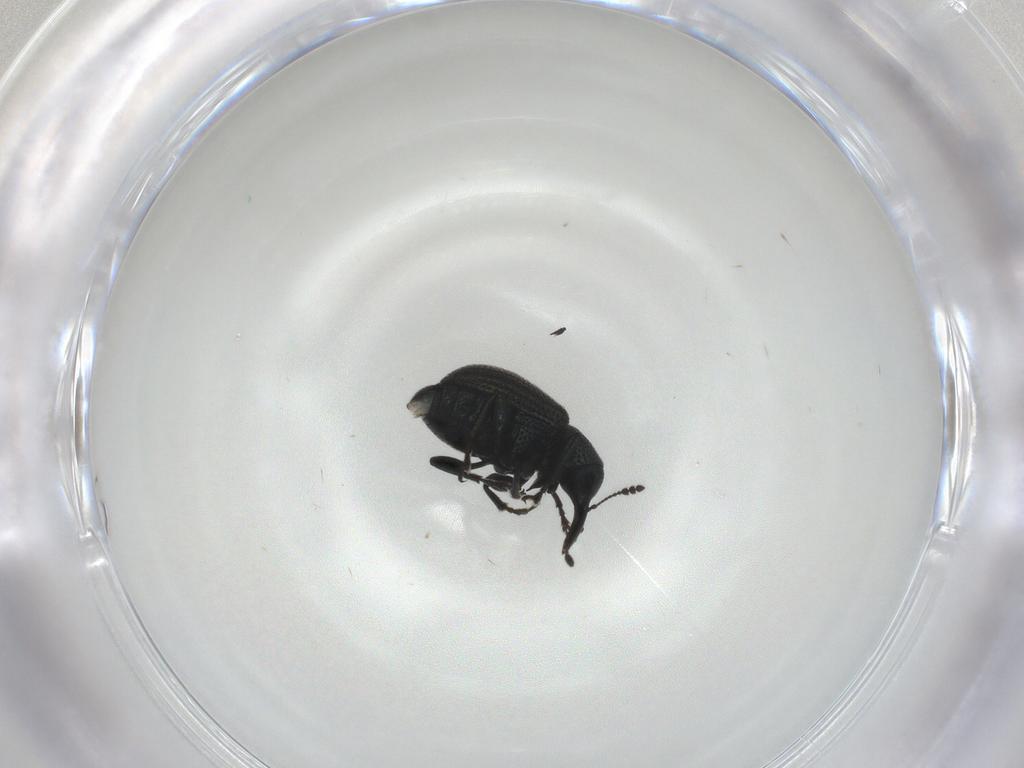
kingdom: Animalia
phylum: Arthropoda
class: Insecta
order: Coleoptera
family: Attelabidae
